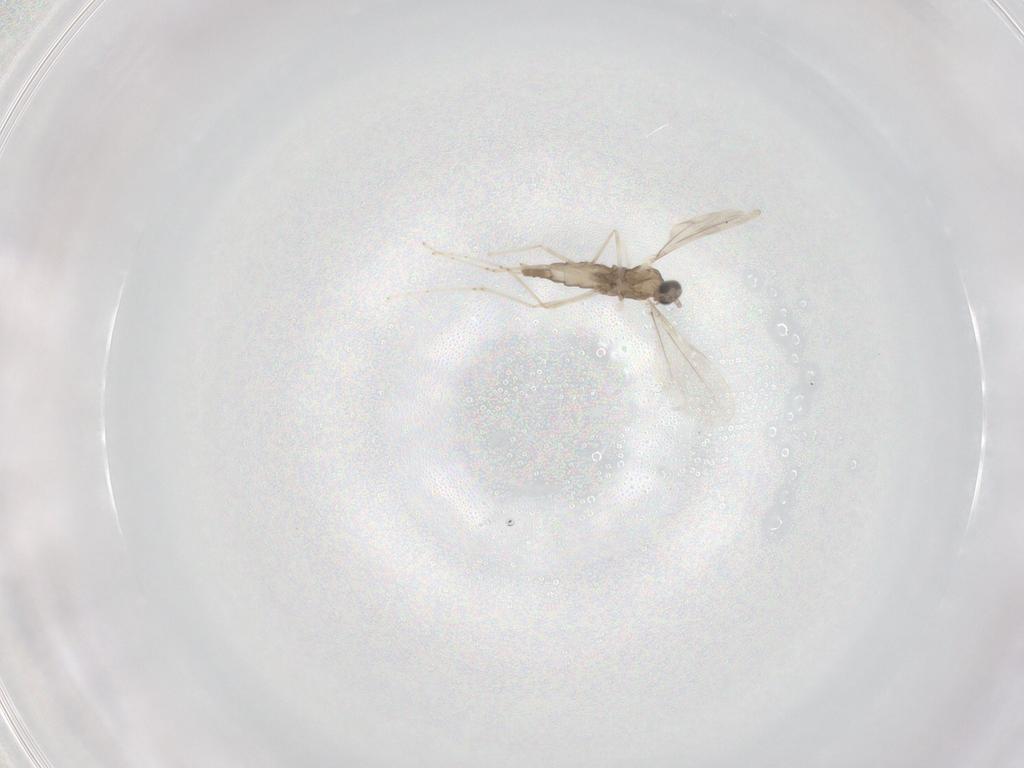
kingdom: Animalia
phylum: Arthropoda
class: Insecta
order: Diptera
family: Cecidomyiidae
